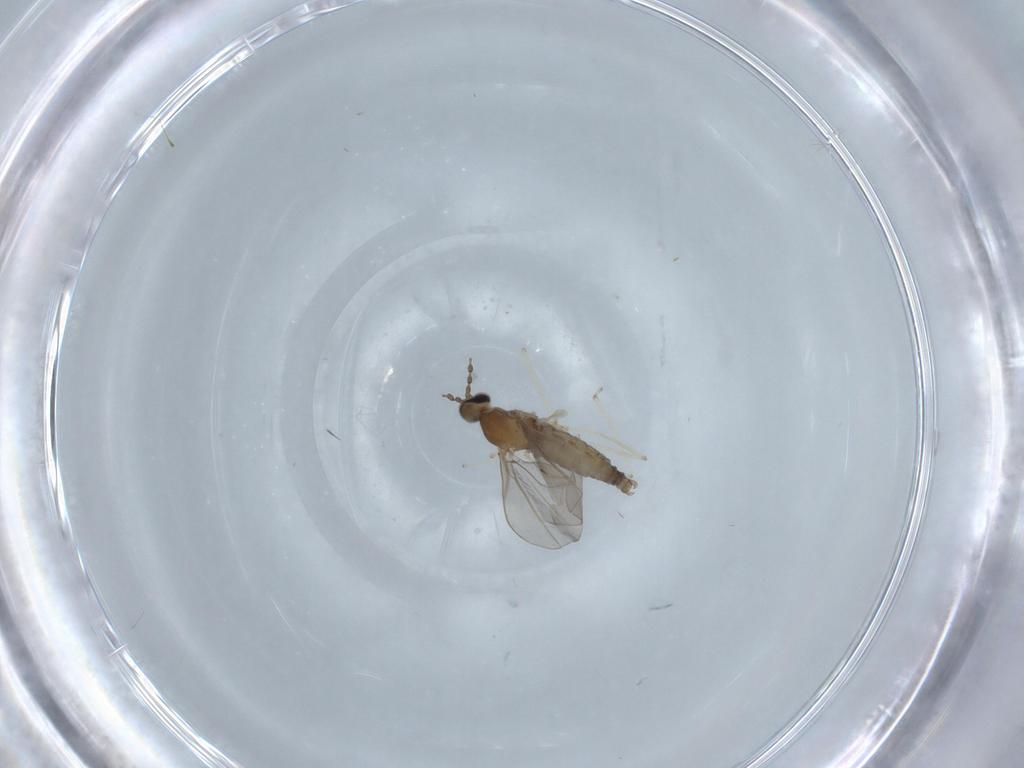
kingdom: Animalia
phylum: Arthropoda
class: Insecta
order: Diptera
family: Cecidomyiidae
